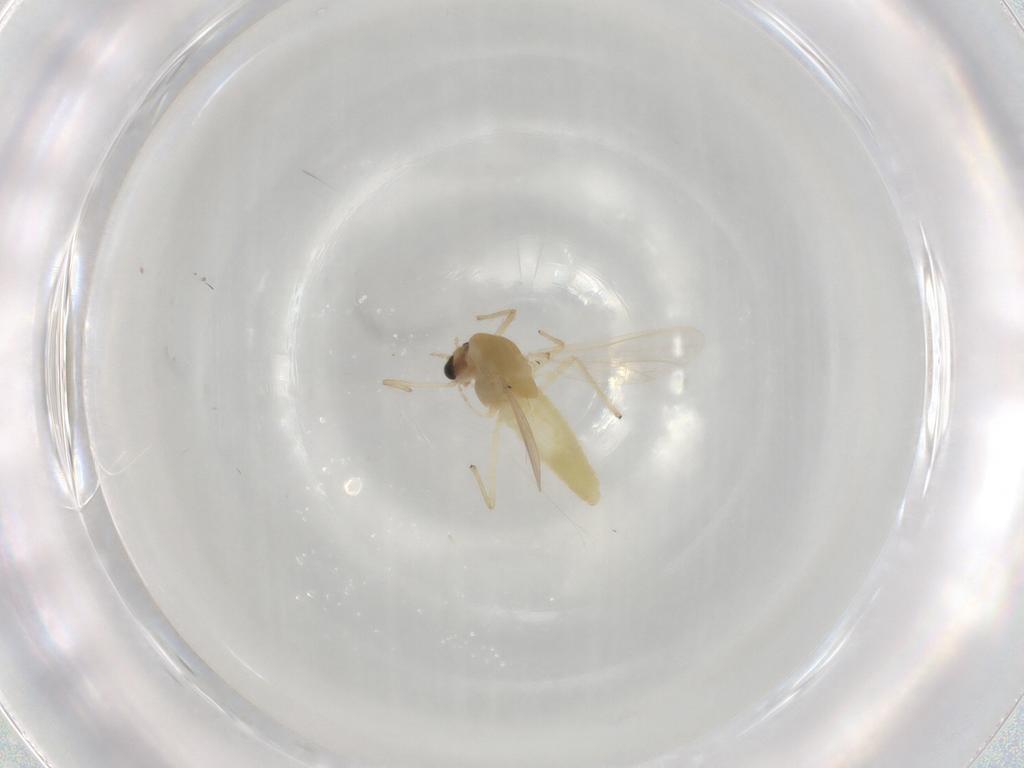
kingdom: Animalia
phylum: Arthropoda
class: Insecta
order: Diptera
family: Chironomidae
